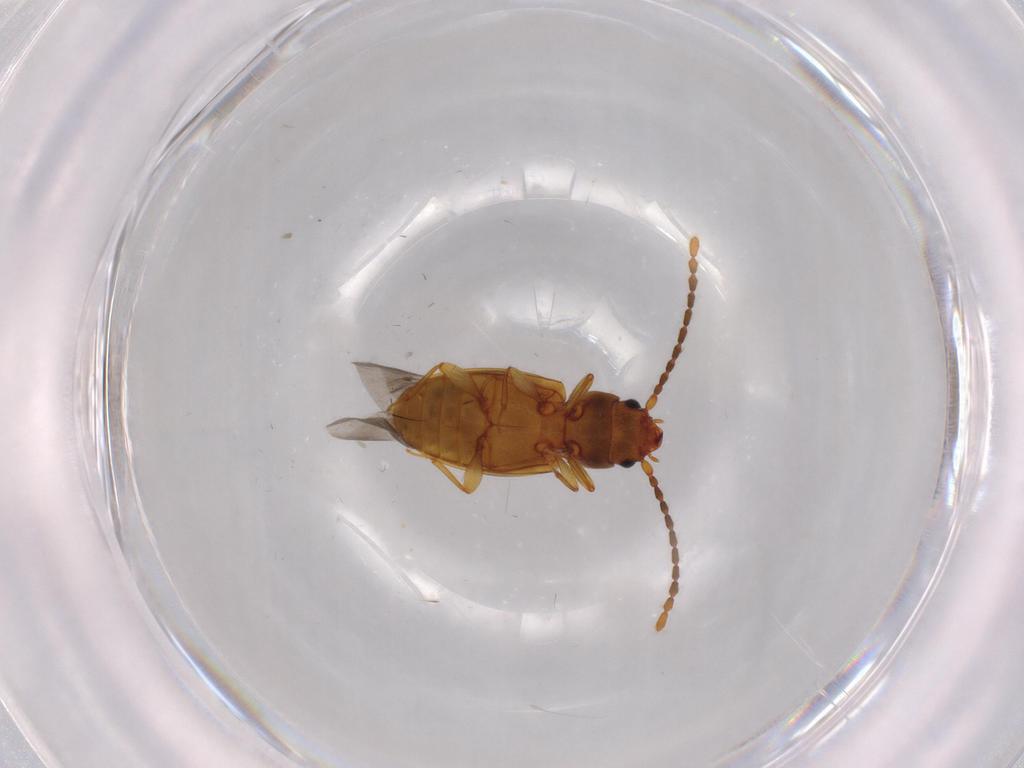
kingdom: Animalia
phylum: Arthropoda
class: Insecta
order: Coleoptera
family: Laemophloeidae
